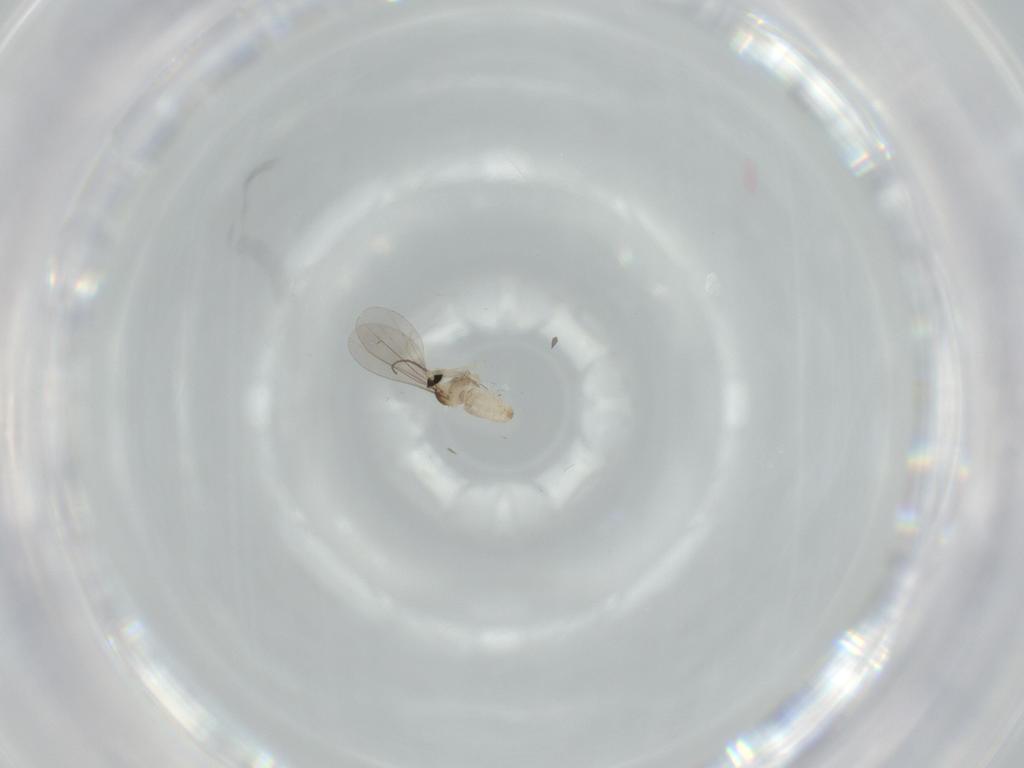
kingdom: Animalia
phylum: Arthropoda
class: Insecta
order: Diptera
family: Cecidomyiidae
